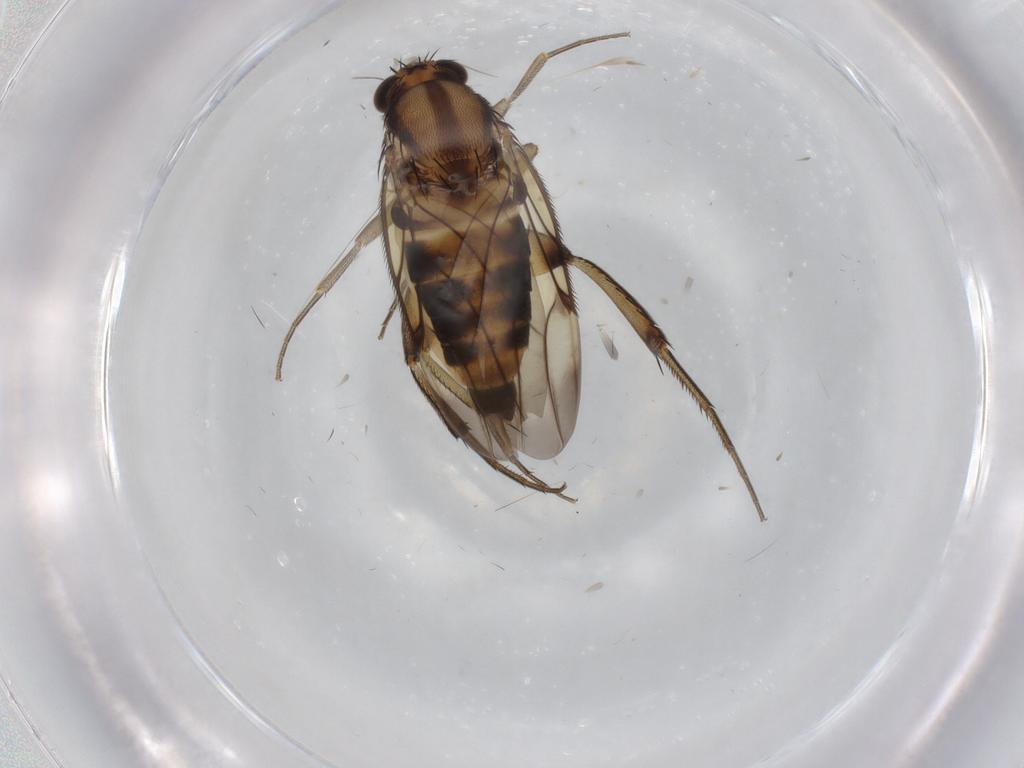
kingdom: Animalia
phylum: Arthropoda
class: Insecta
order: Diptera
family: Phoridae
